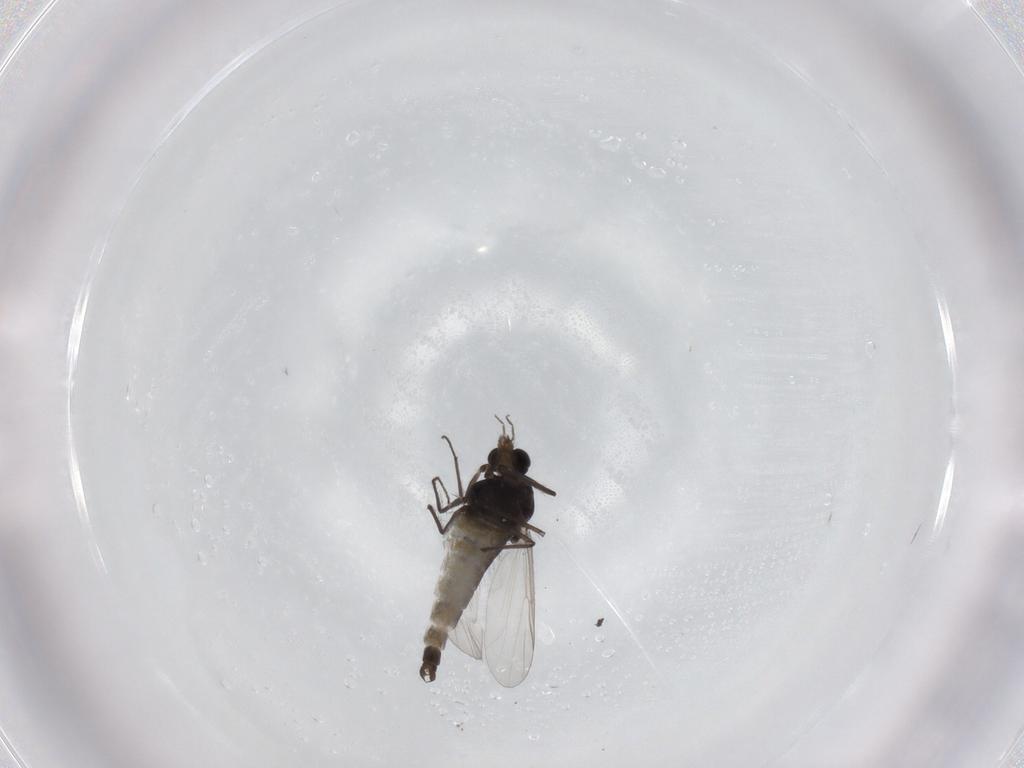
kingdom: Animalia
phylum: Arthropoda
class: Insecta
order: Diptera
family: Chironomidae
